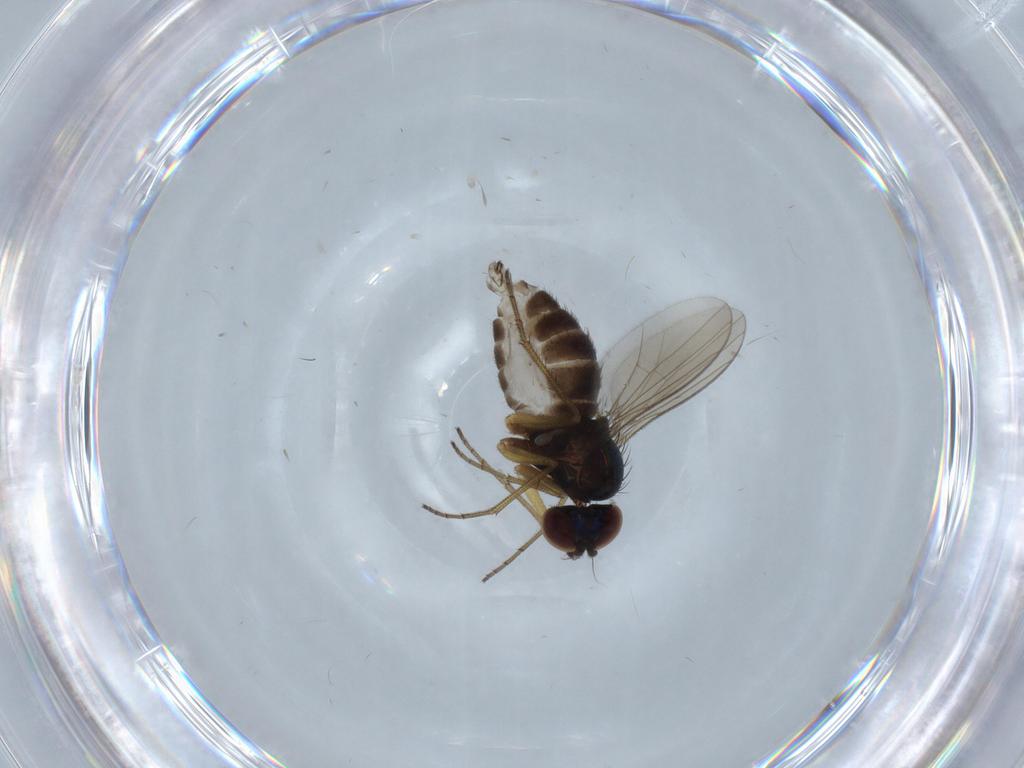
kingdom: Animalia
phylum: Arthropoda
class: Insecta
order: Diptera
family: Dolichopodidae
